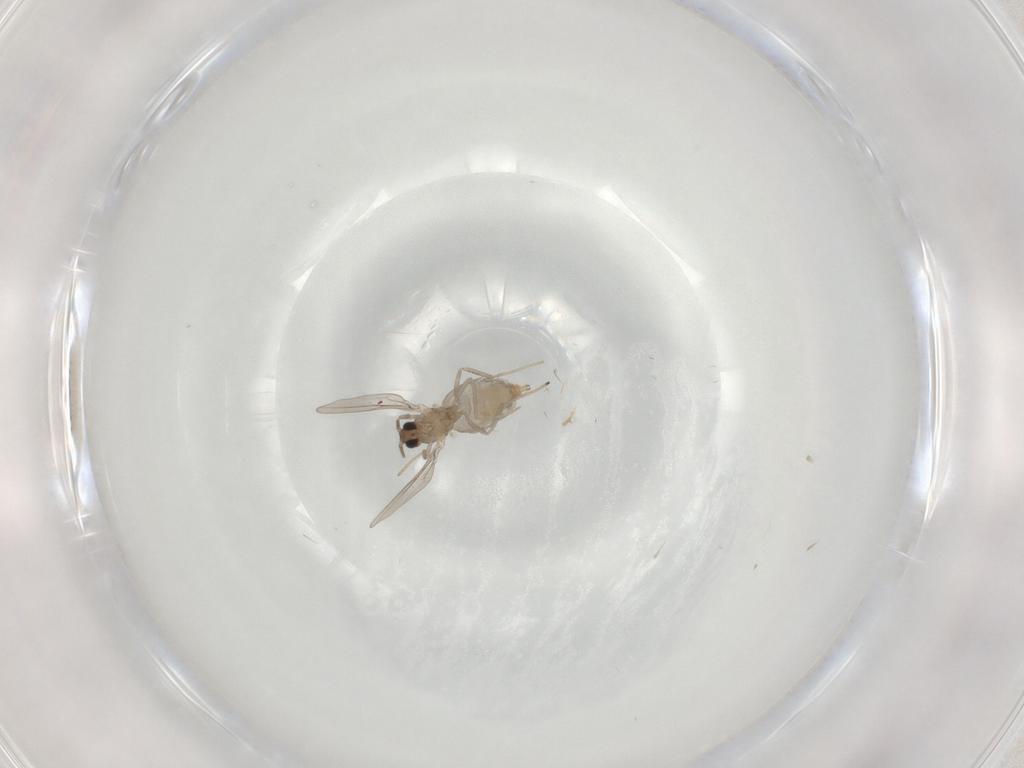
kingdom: Animalia
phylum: Arthropoda
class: Insecta
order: Diptera
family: Cecidomyiidae
